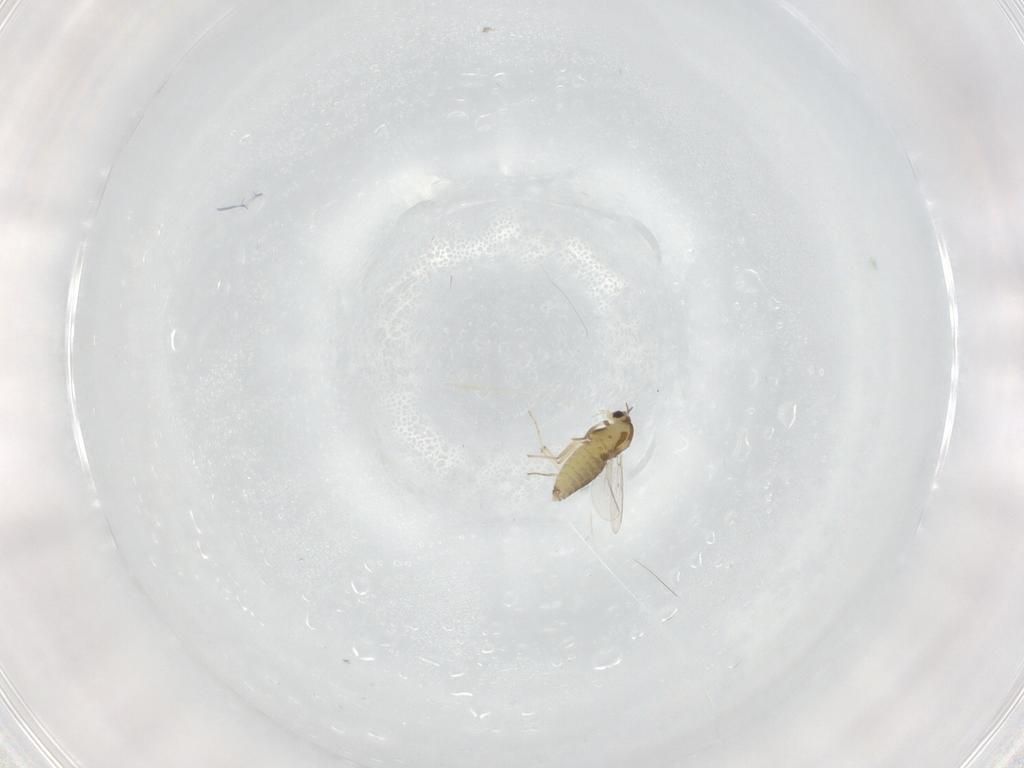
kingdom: Animalia
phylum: Arthropoda
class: Insecta
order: Diptera
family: Chironomidae
